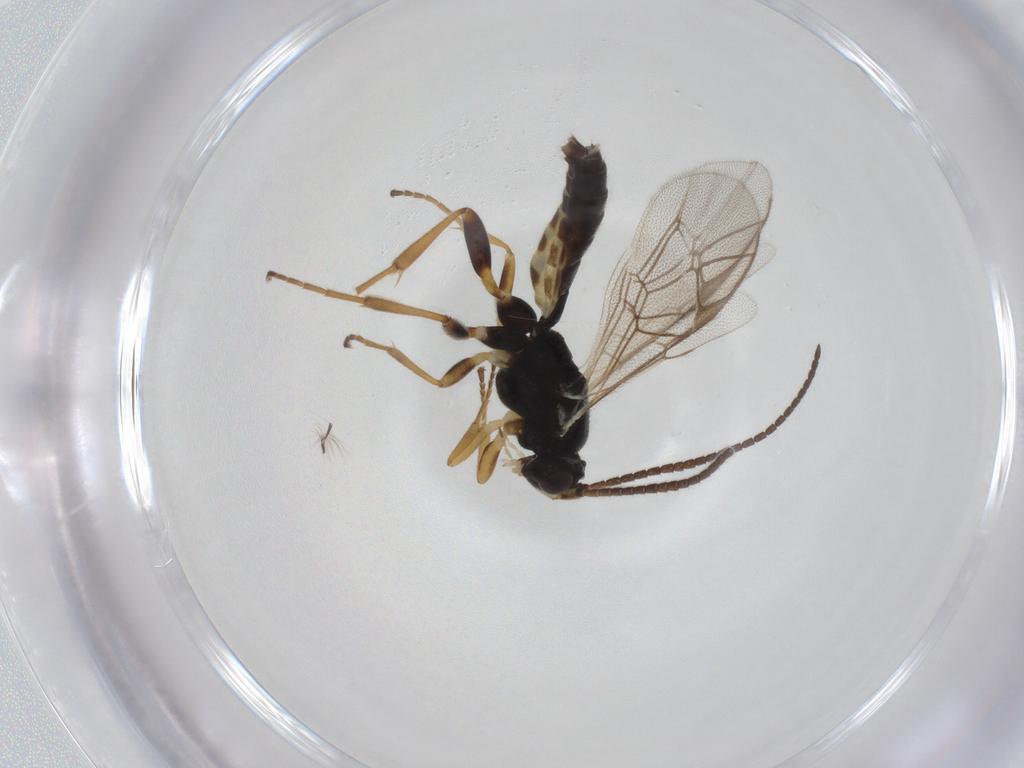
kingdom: Animalia
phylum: Arthropoda
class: Insecta
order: Hymenoptera
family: Ichneumonidae
